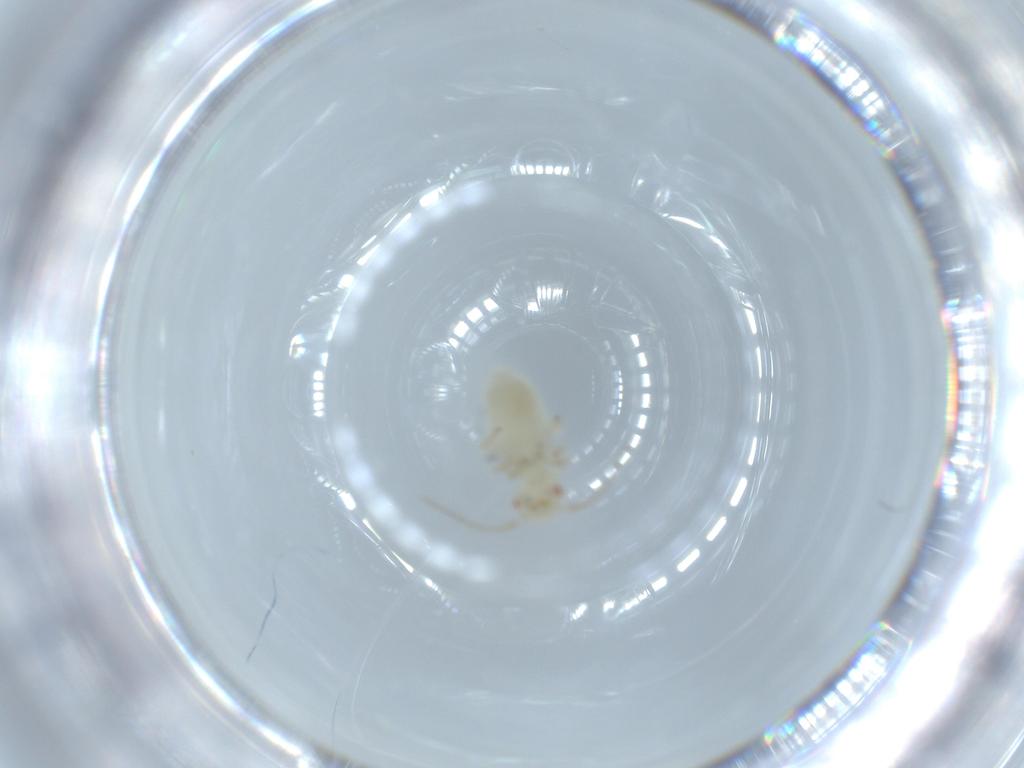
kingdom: Animalia
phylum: Arthropoda
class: Insecta
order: Psocodea
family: Caeciliusidae
